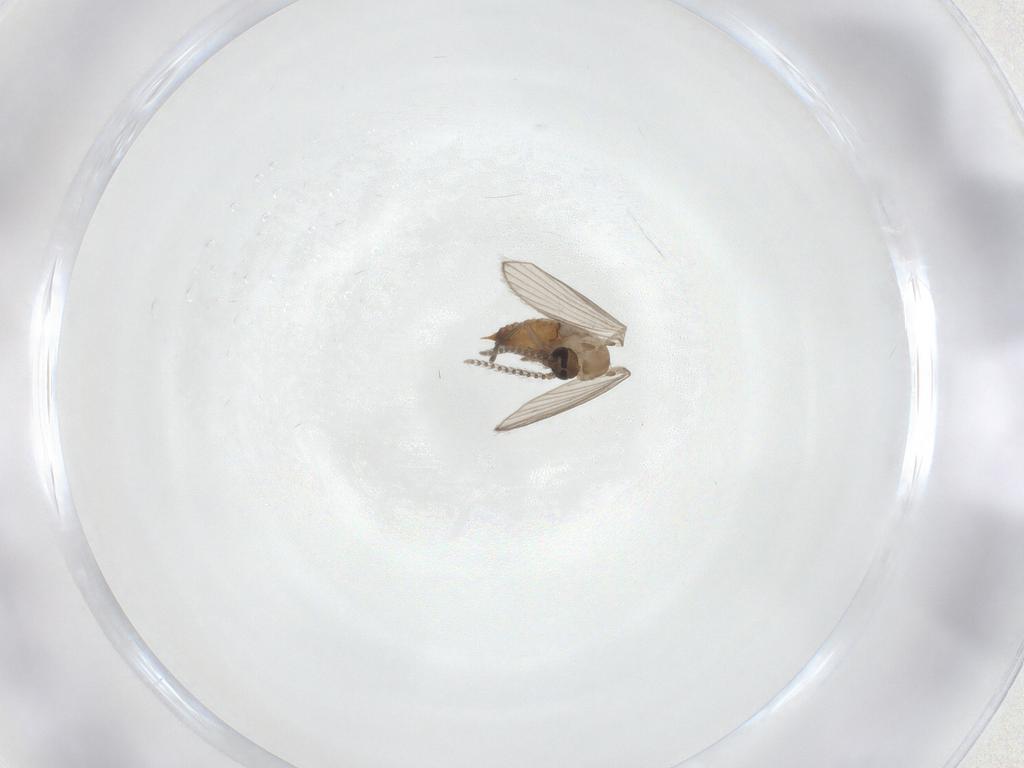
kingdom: Animalia
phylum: Arthropoda
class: Insecta
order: Diptera
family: Psychodidae
